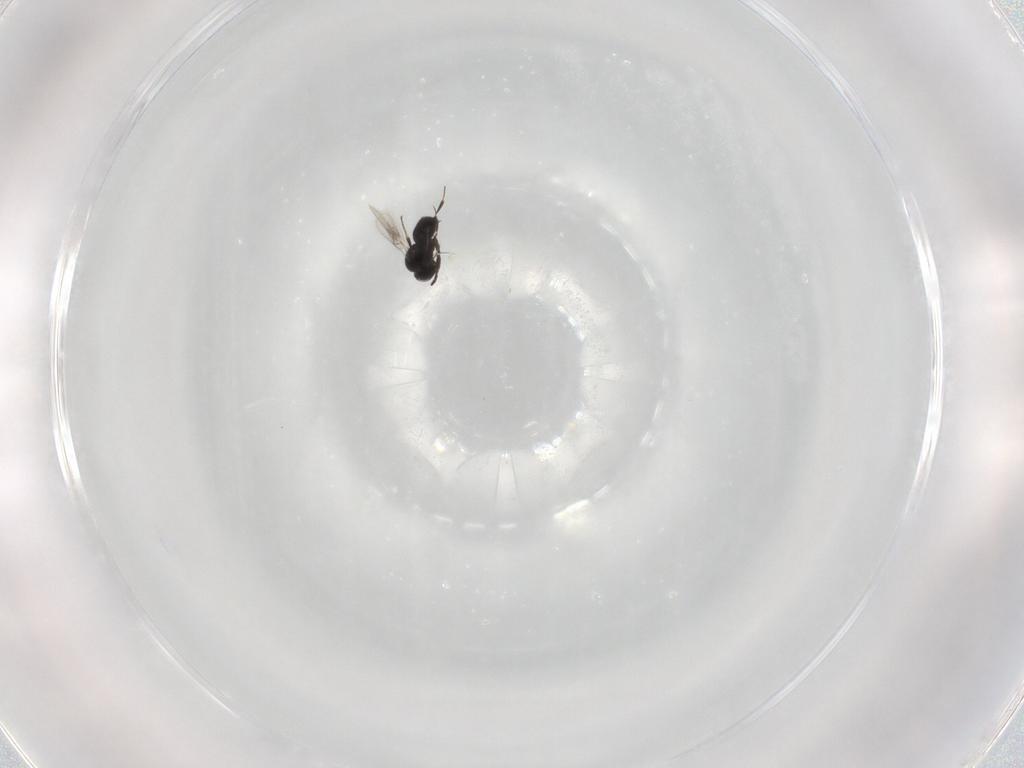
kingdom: Animalia
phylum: Arthropoda
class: Insecta
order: Hymenoptera
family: Scelionidae
